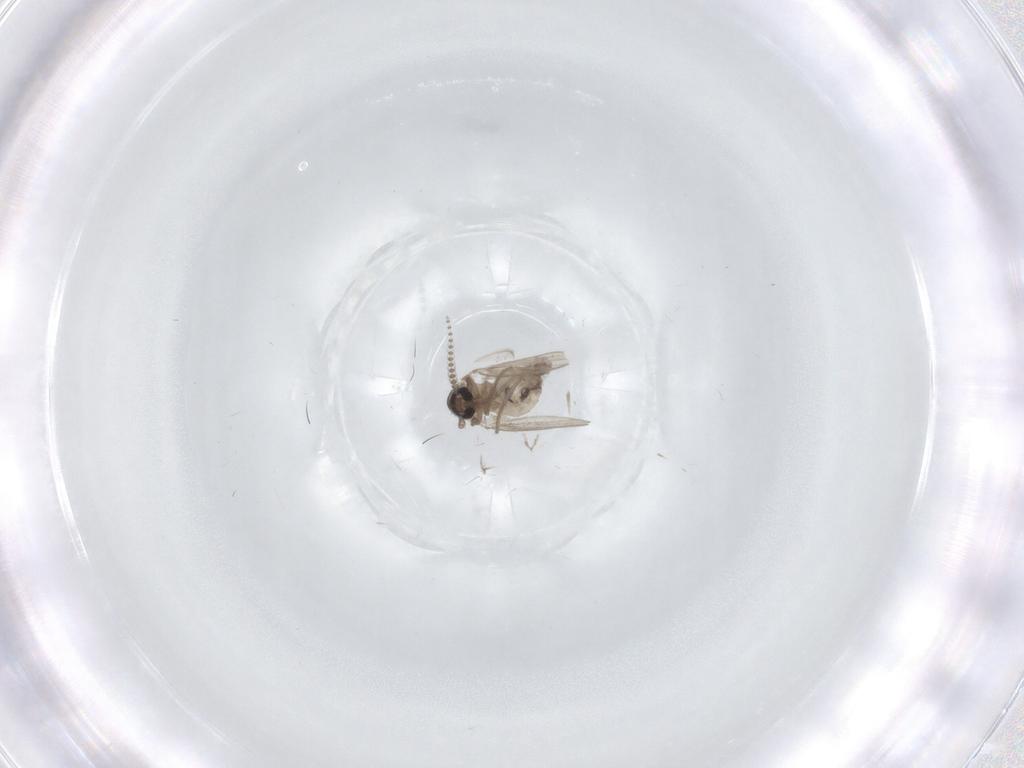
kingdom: Animalia
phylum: Arthropoda
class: Insecta
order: Diptera
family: Psychodidae
